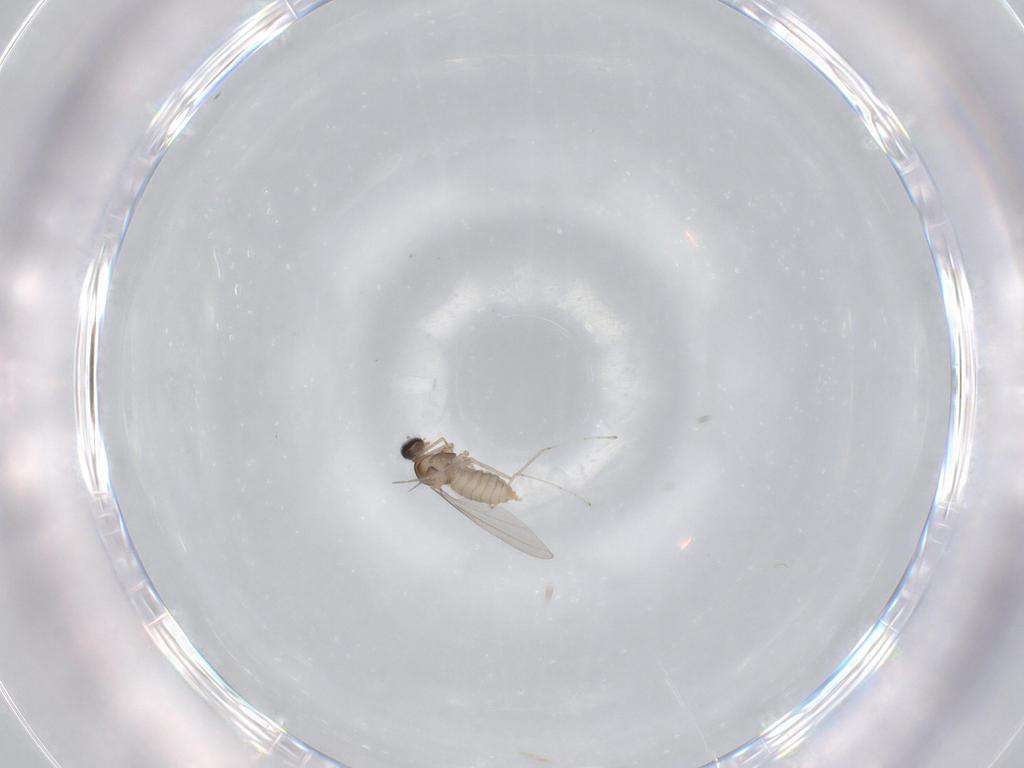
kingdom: Animalia
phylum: Arthropoda
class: Insecta
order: Diptera
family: Cecidomyiidae
